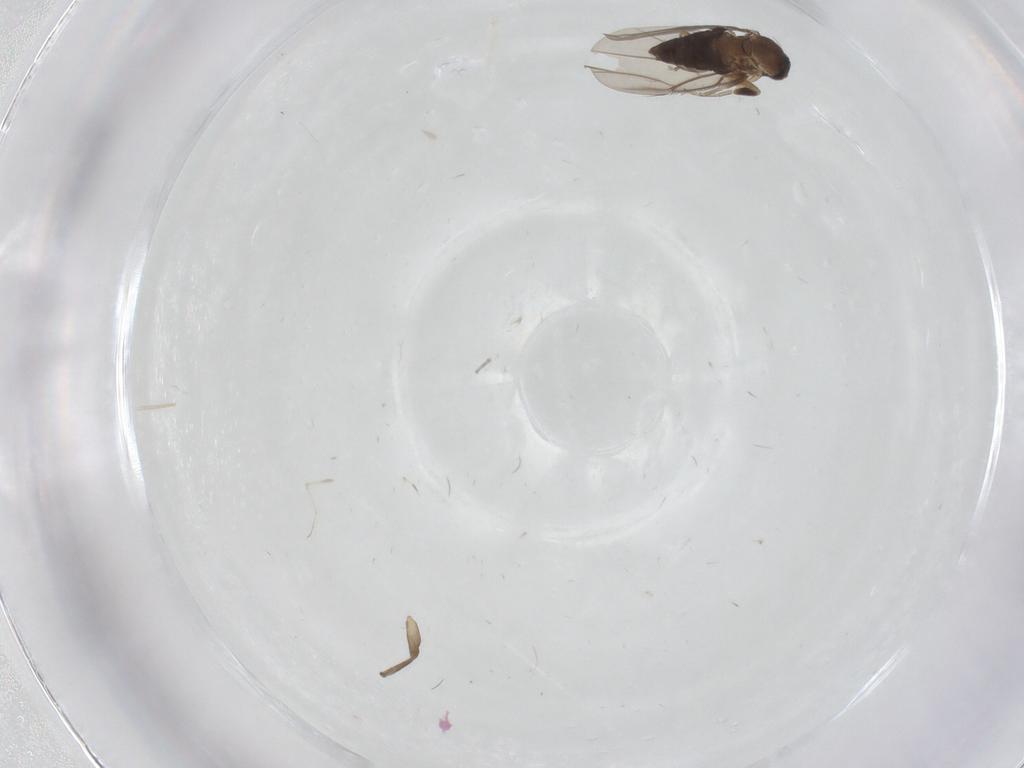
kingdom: Animalia
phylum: Arthropoda
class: Insecta
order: Diptera
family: Phoridae
